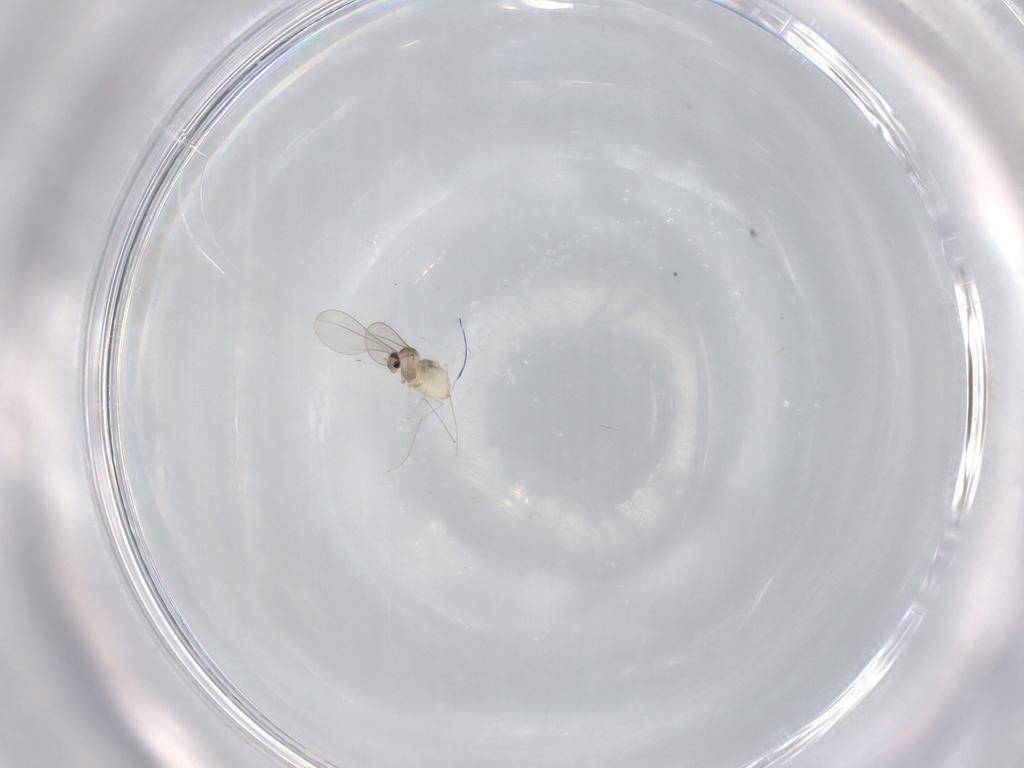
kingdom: Animalia
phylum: Arthropoda
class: Insecta
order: Diptera
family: Cecidomyiidae
